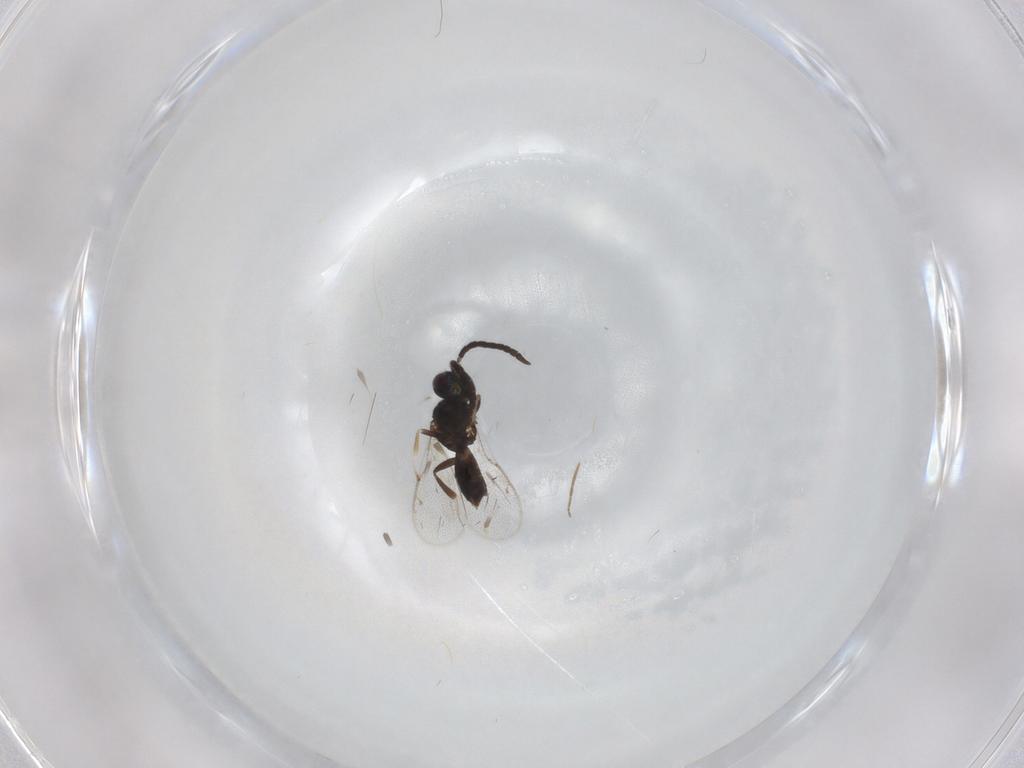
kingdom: Animalia
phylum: Arthropoda
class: Insecta
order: Hymenoptera
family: Eupelmidae
